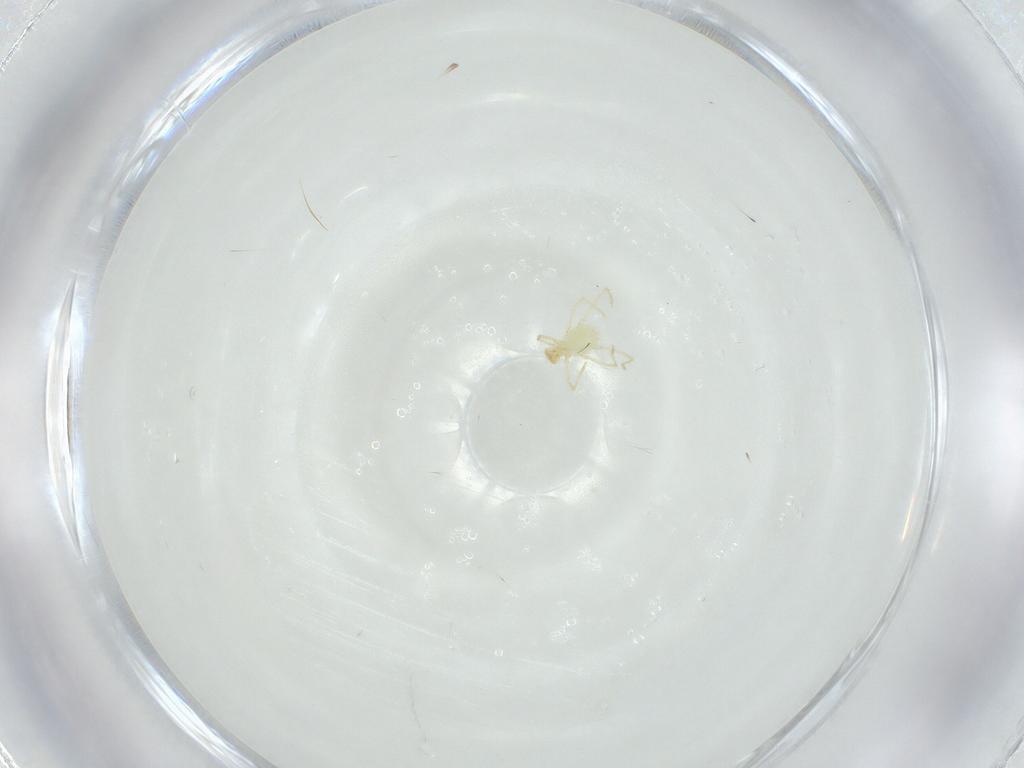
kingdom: Animalia
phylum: Arthropoda
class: Arachnida
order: Trombidiformes
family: Erythraeidae
